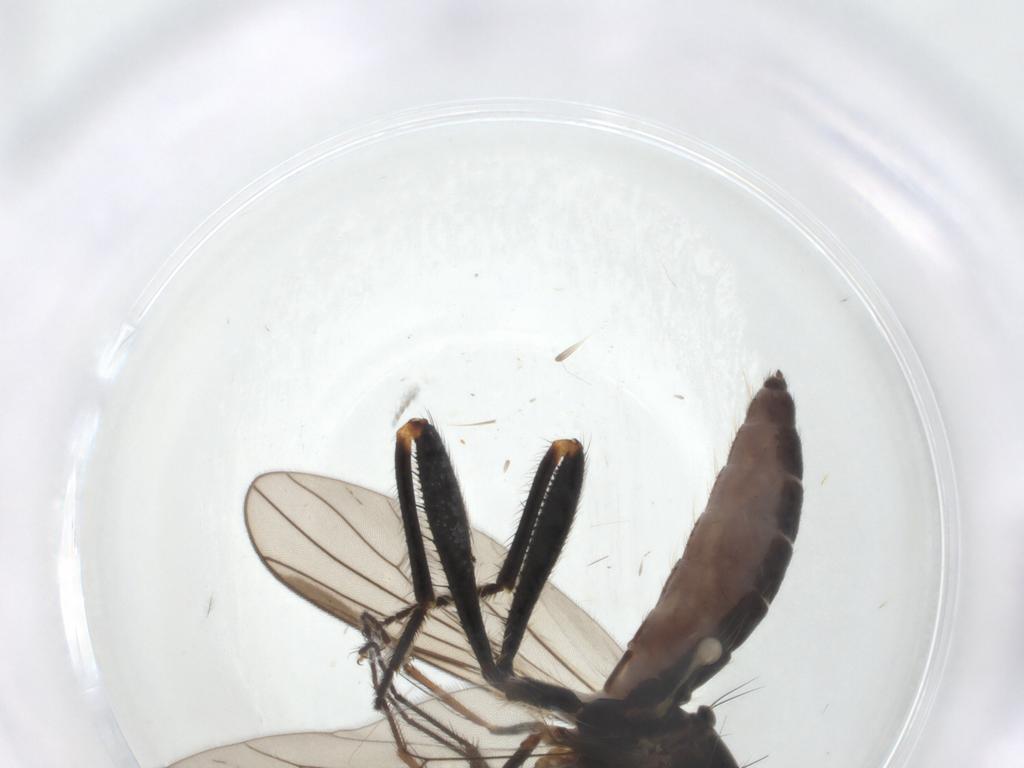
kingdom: Animalia
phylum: Arthropoda
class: Insecta
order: Diptera
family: Hybotidae
